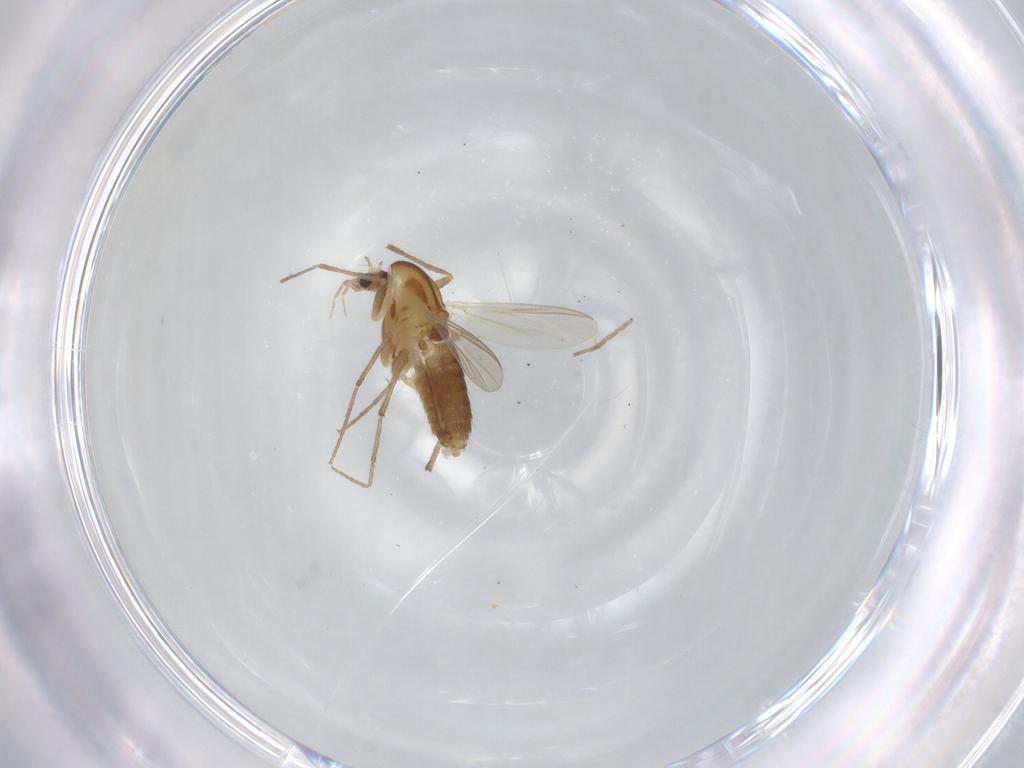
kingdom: Animalia
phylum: Arthropoda
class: Insecta
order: Diptera
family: Chironomidae
